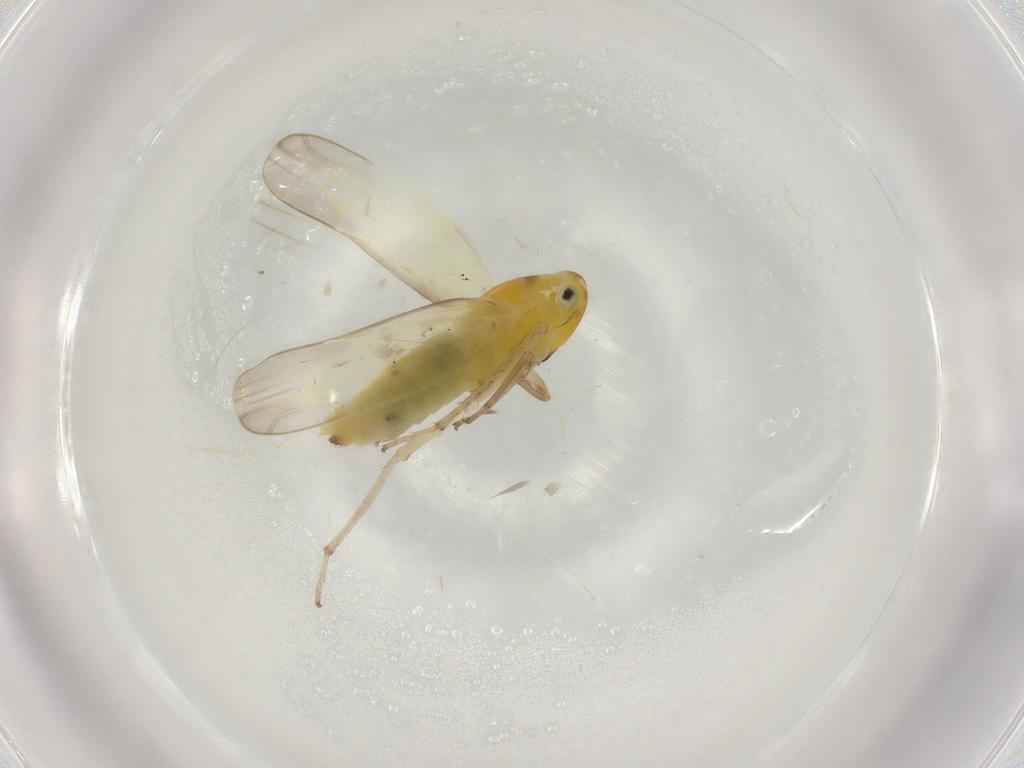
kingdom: Animalia
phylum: Arthropoda
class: Insecta
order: Hemiptera
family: Cicadellidae
